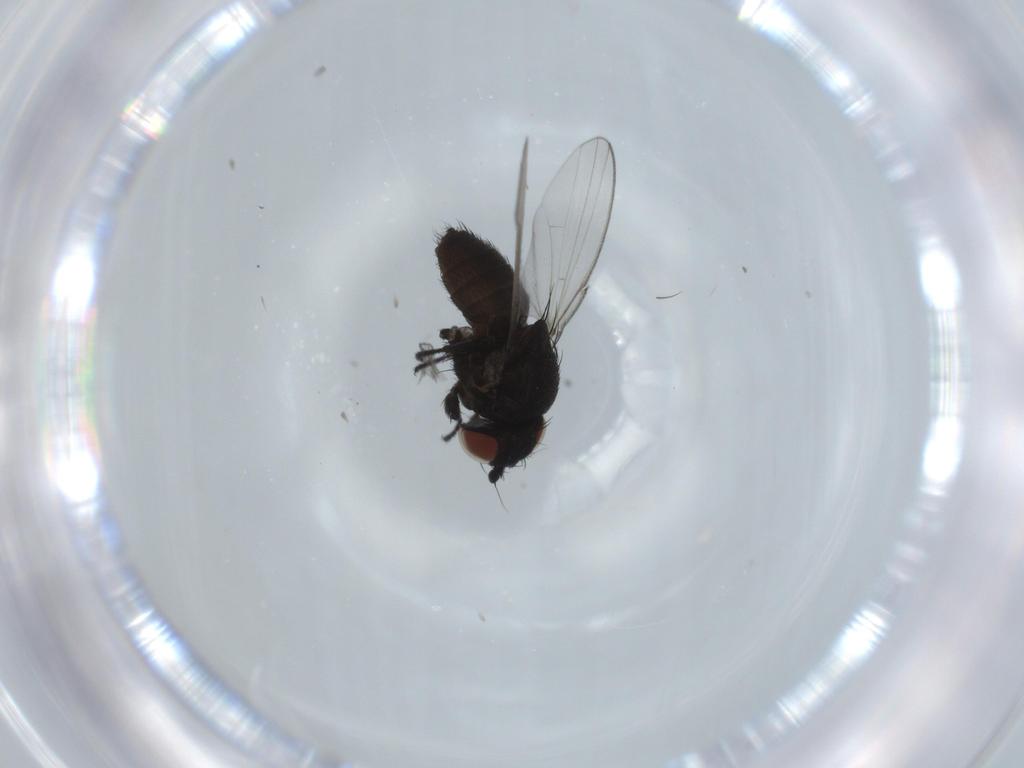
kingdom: Animalia
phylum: Arthropoda
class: Insecta
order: Diptera
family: Milichiidae
